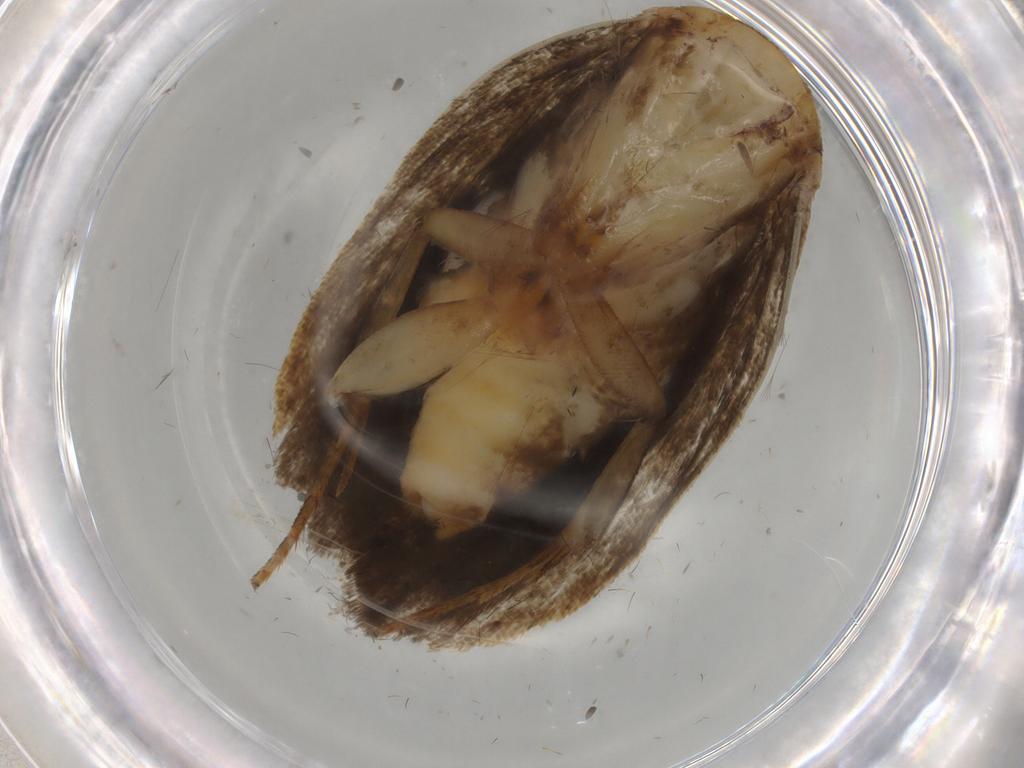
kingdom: Animalia
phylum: Arthropoda
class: Insecta
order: Lepidoptera
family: Gelechiidae
